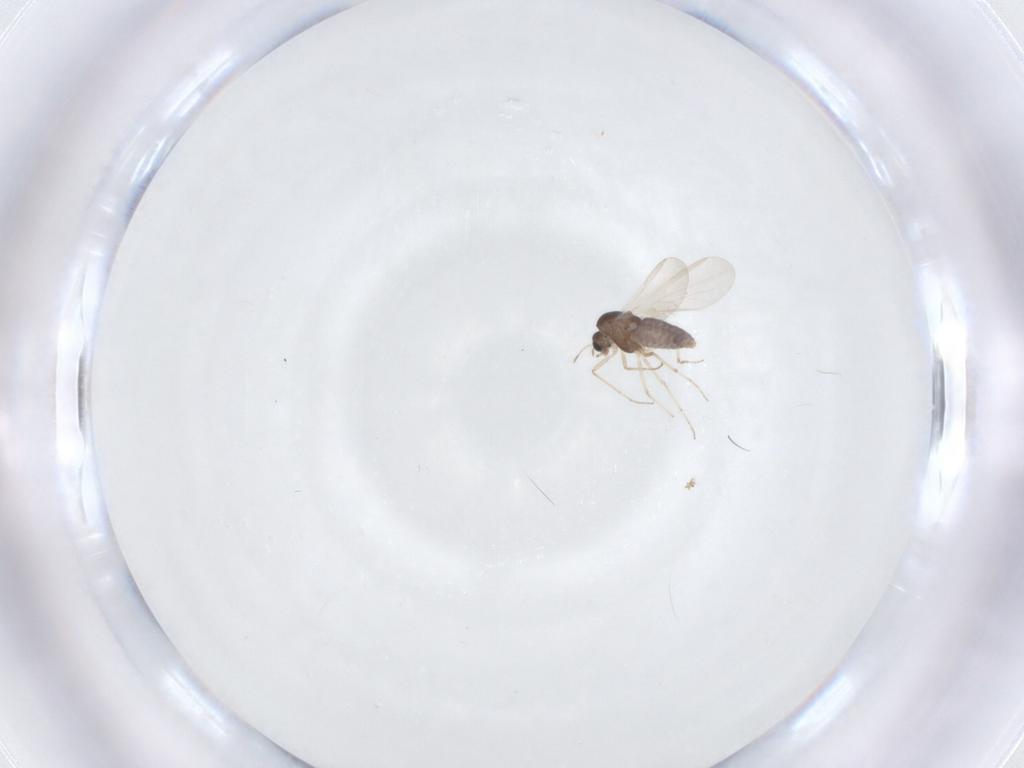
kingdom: Animalia
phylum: Arthropoda
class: Insecta
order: Diptera
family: Chironomidae
